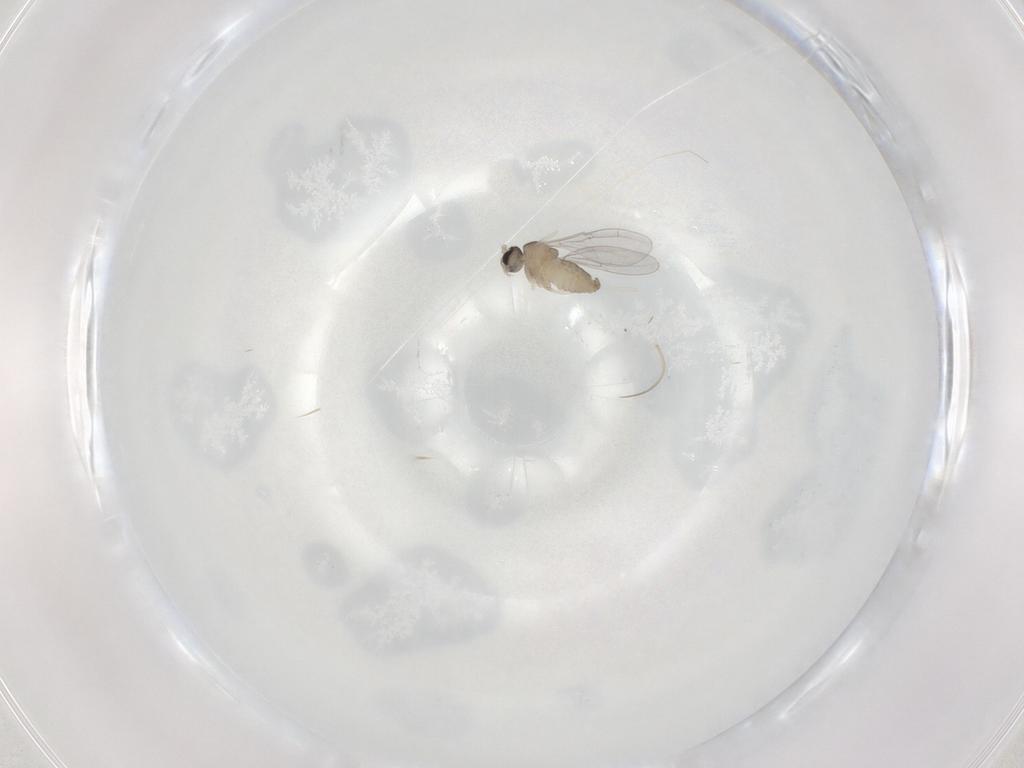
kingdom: Animalia
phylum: Arthropoda
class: Insecta
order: Diptera
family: Cecidomyiidae
